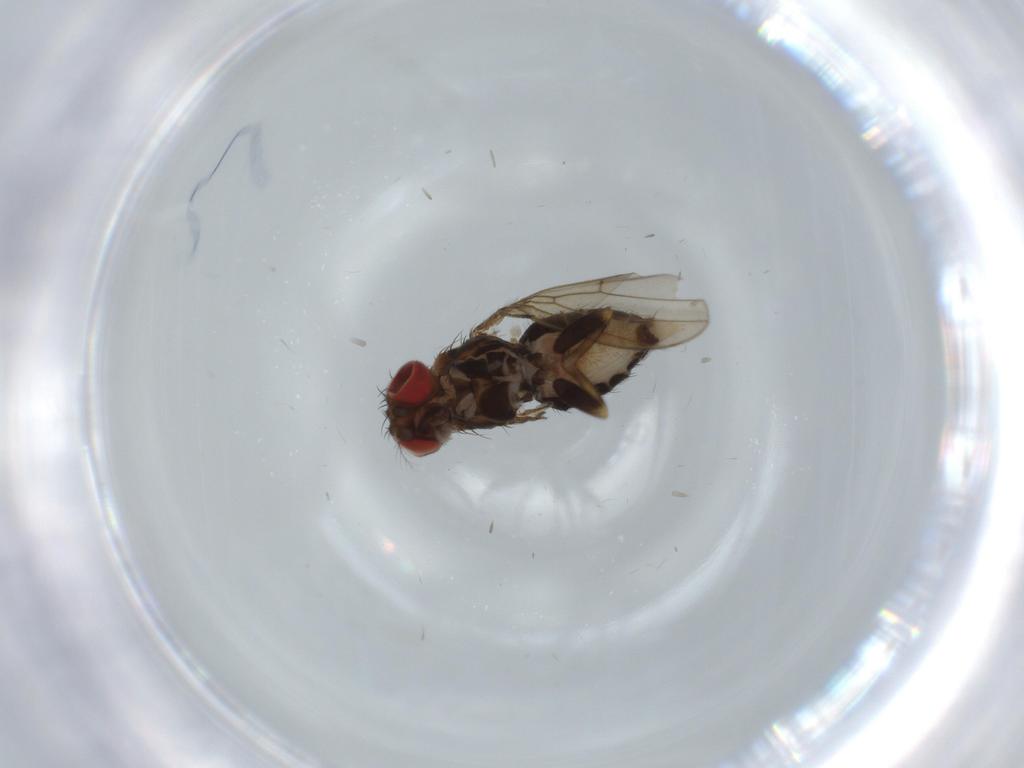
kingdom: Animalia
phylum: Arthropoda
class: Insecta
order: Diptera
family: Drosophilidae
